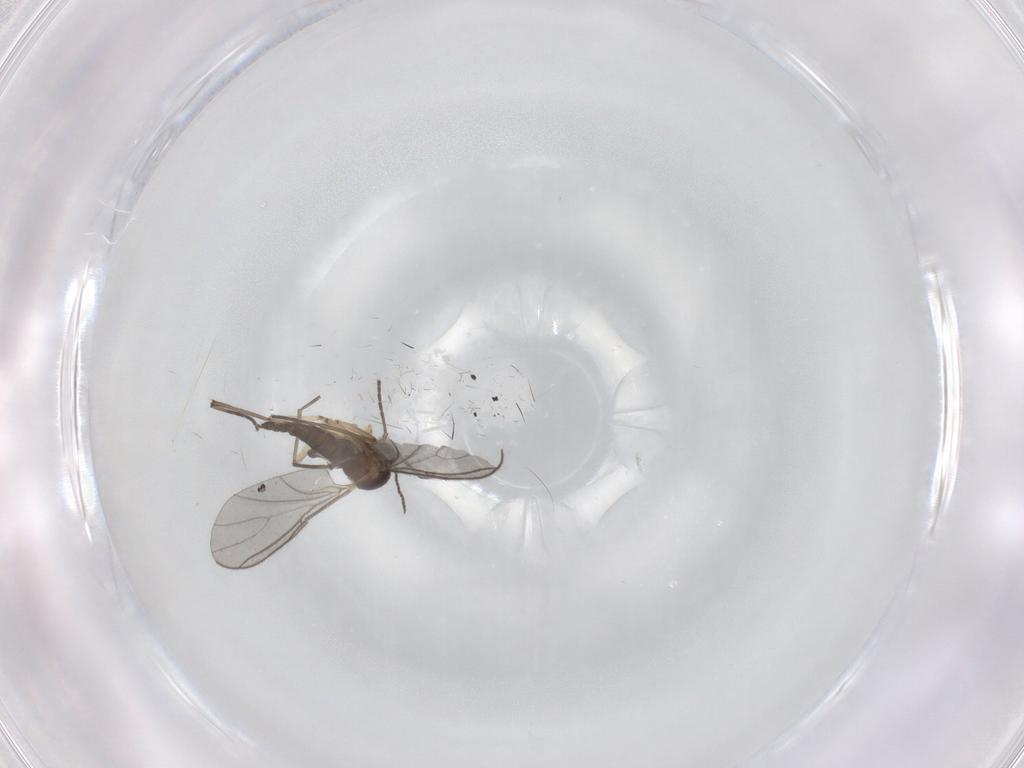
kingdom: Animalia
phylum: Arthropoda
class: Insecta
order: Diptera
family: Sciaridae
